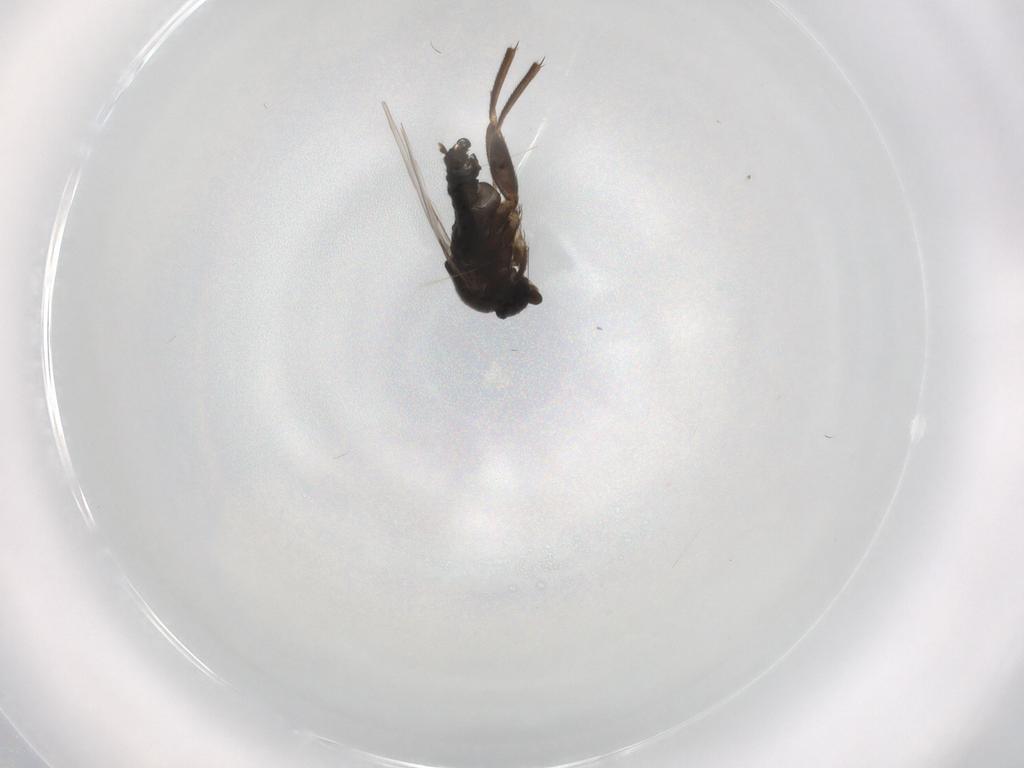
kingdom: Animalia
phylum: Arthropoda
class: Insecta
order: Diptera
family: Phoridae
